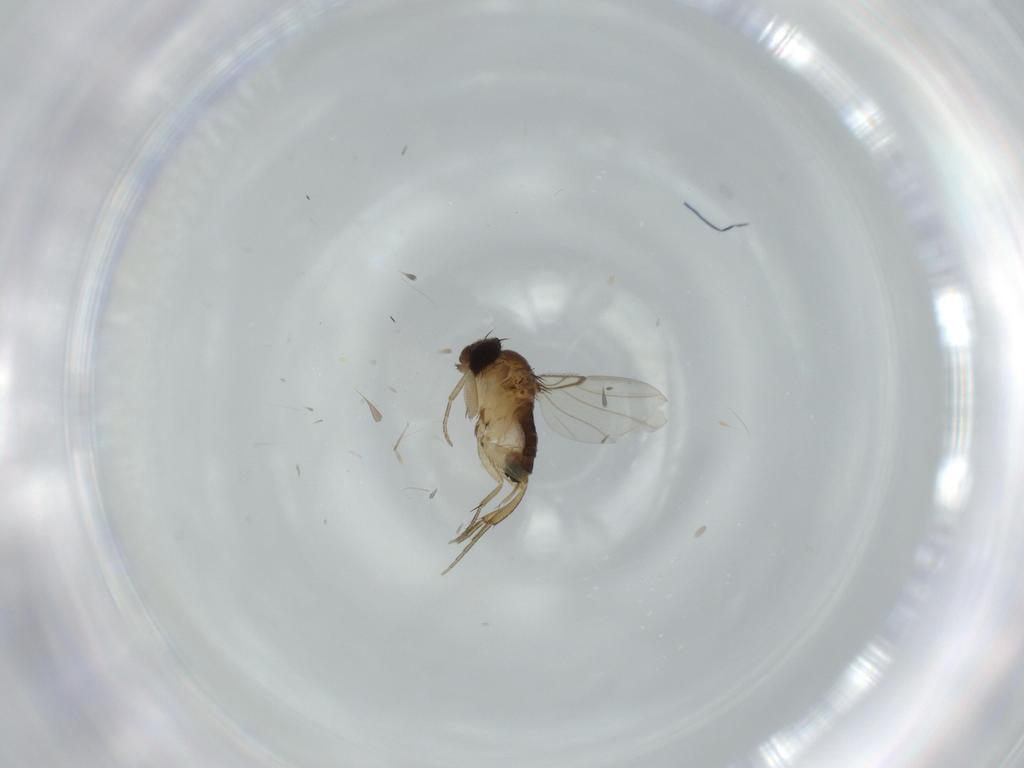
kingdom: Animalia
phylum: Arthropoda
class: Insecta
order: Diptera
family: Phoridae
